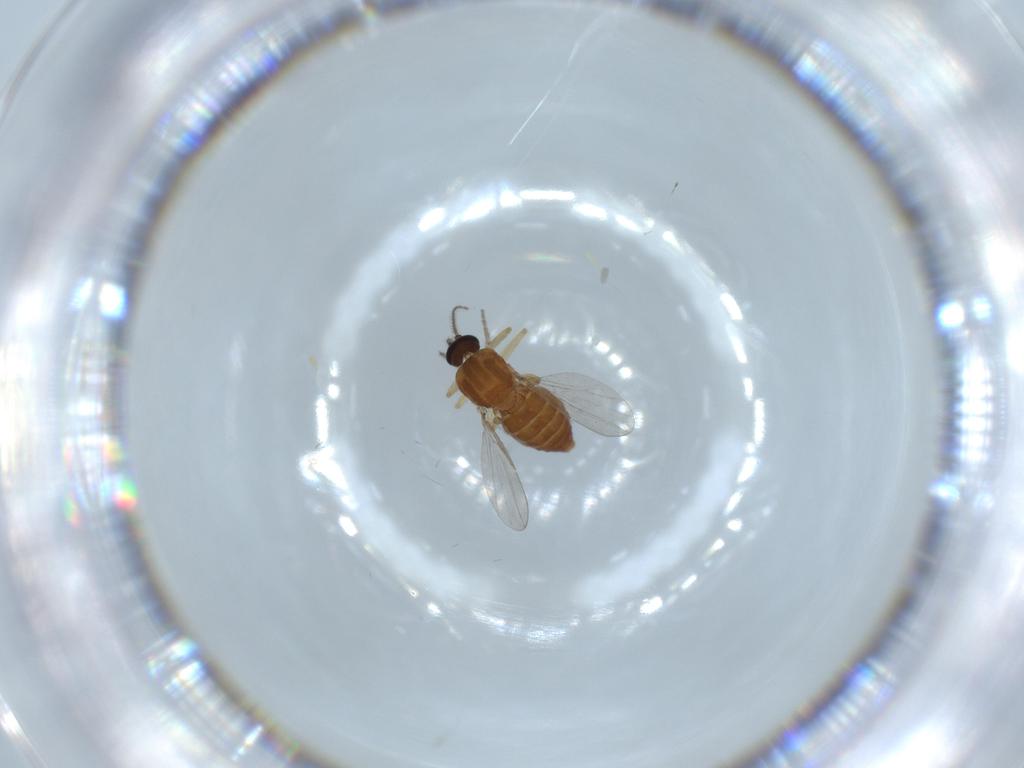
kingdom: Animalia
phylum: Arthropoda
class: Insecta
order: Diptera
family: Ceratopogonidae
